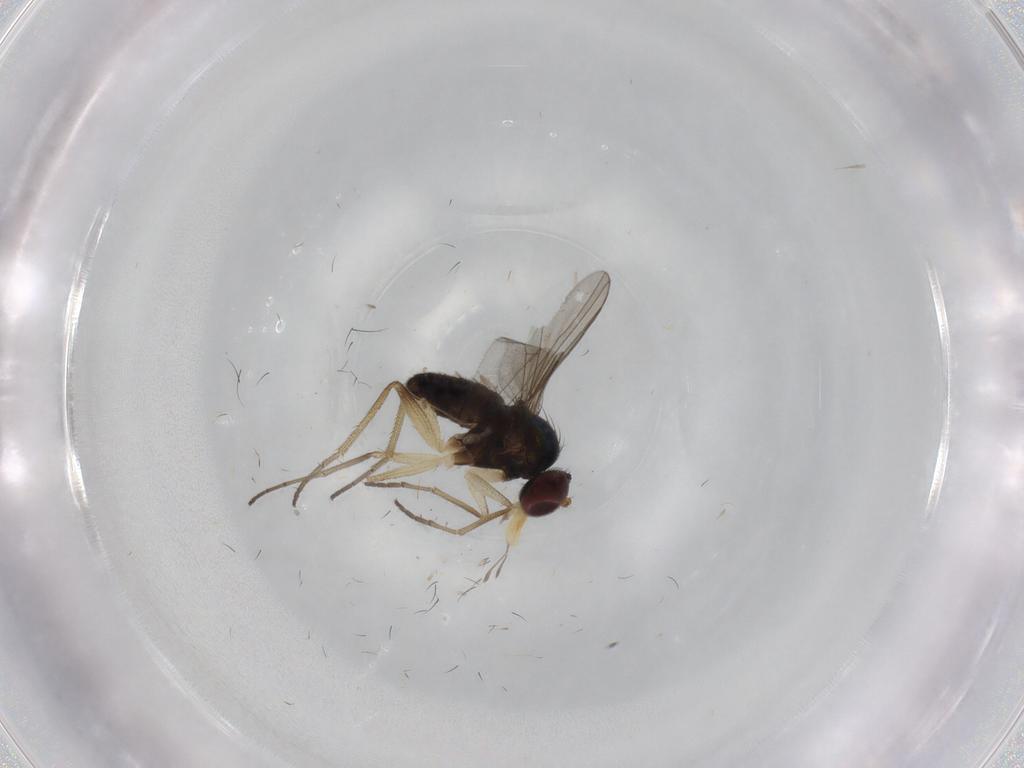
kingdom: Animalia
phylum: Arthropoda
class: Insecta
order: Diptera
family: Dolichopodidae
